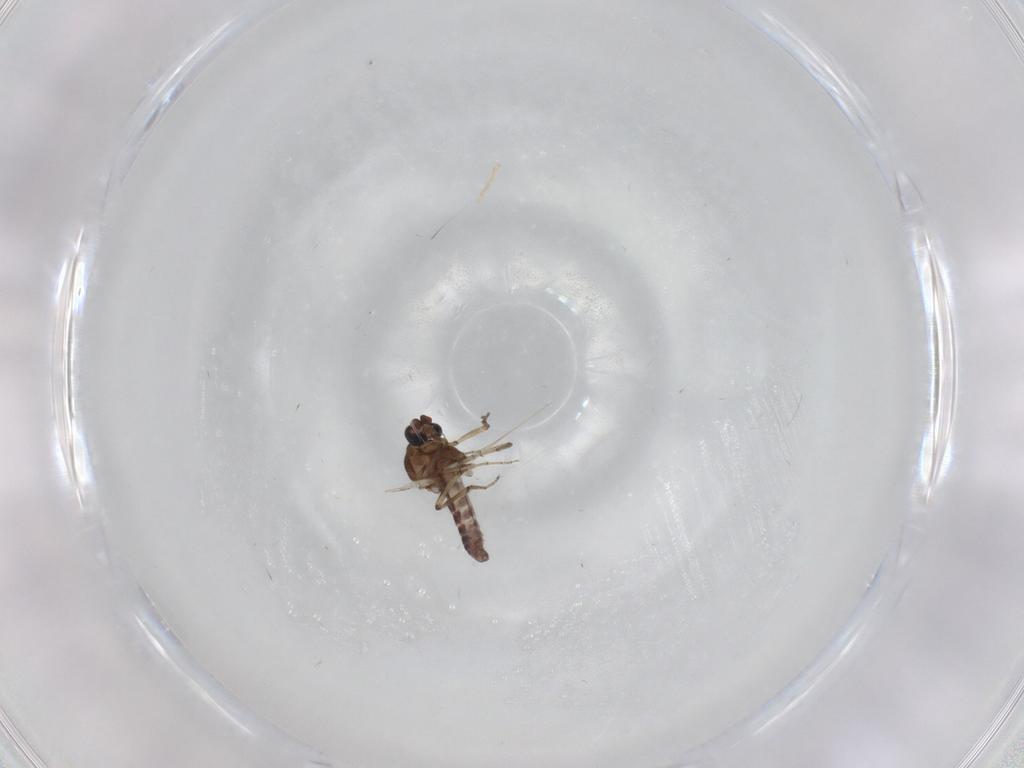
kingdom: Animalia
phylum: Arthropoda
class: Insecta
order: Diptera
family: Ceratopogonidae
